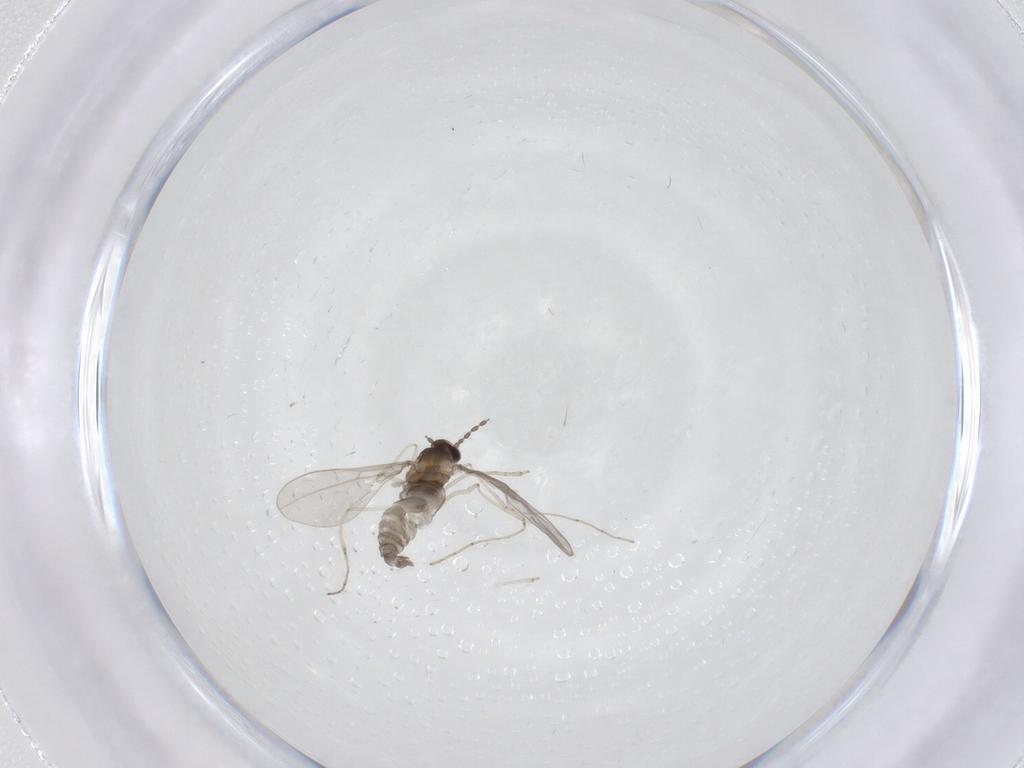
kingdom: Animalia
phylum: Arthropoda
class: Insecta
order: Diptera
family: Cecidomyiidae
